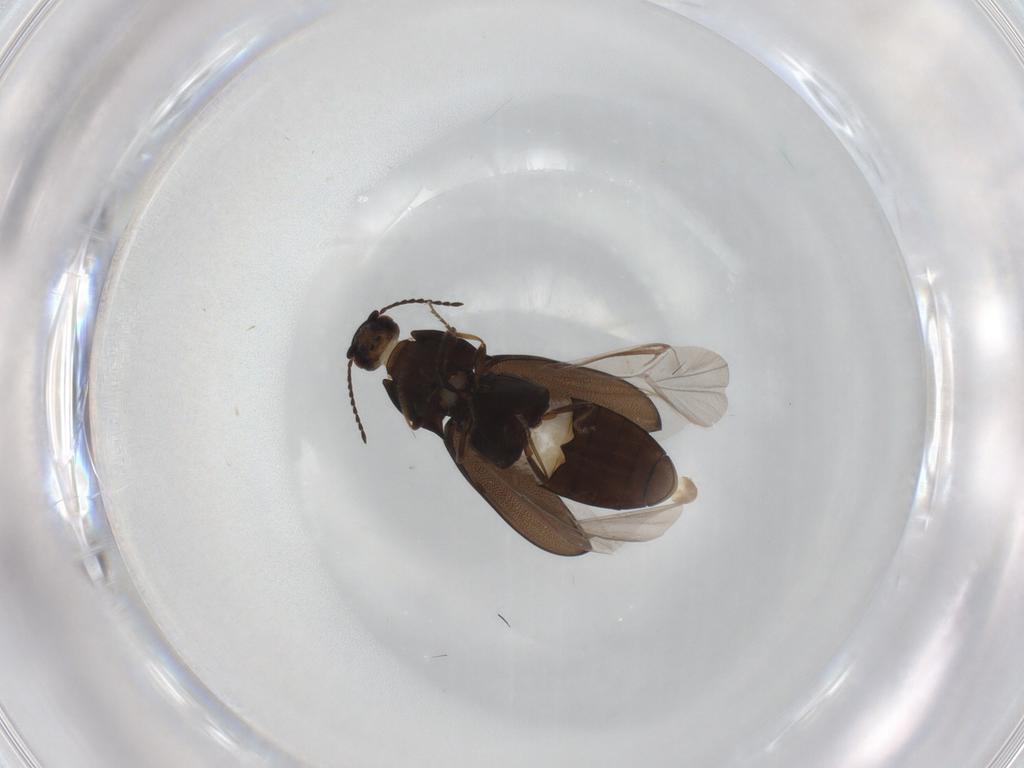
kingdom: Animalia
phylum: Arthropoda
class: Insecta
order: Coleoptera
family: Elateridae
